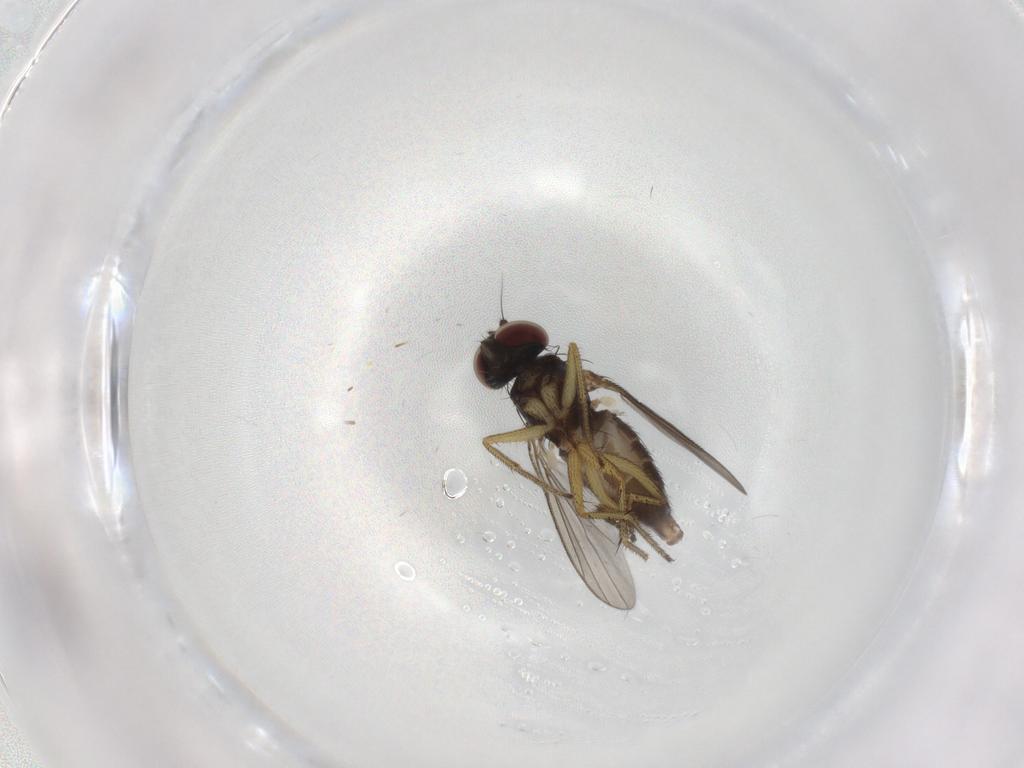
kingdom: Animalia
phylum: Arthropoda
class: Insecta
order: Diptera
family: Dolichopodidae
